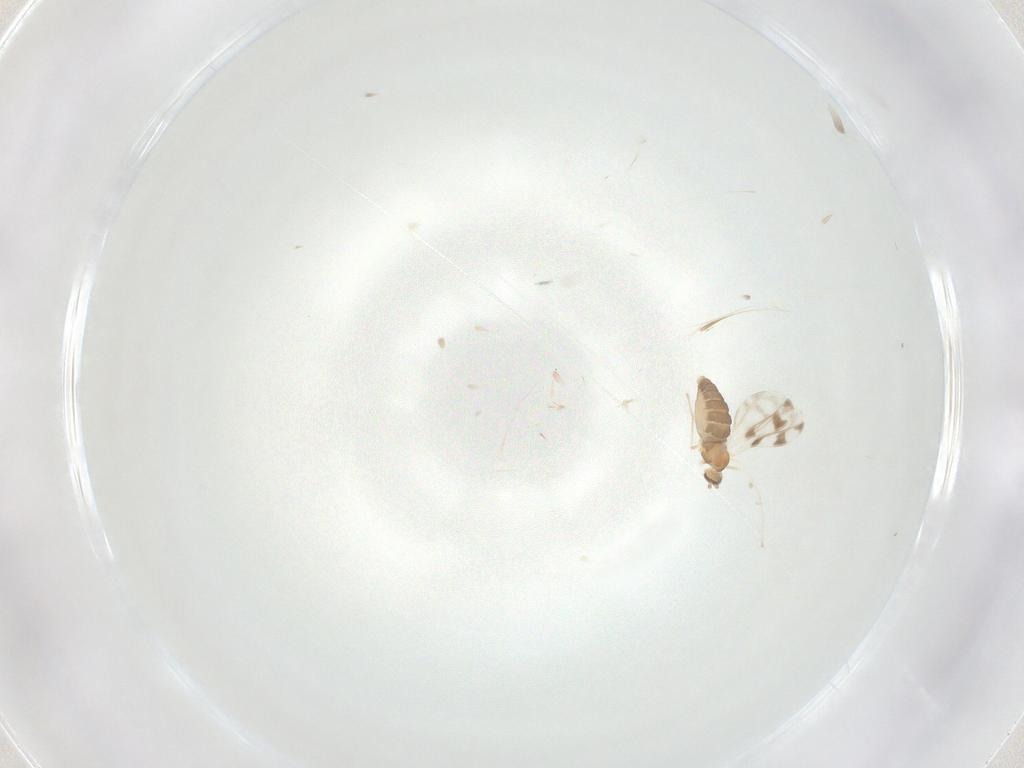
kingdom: Animalia
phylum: Arthropoda
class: Insecta
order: Diptera
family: Cecidomyiidae
